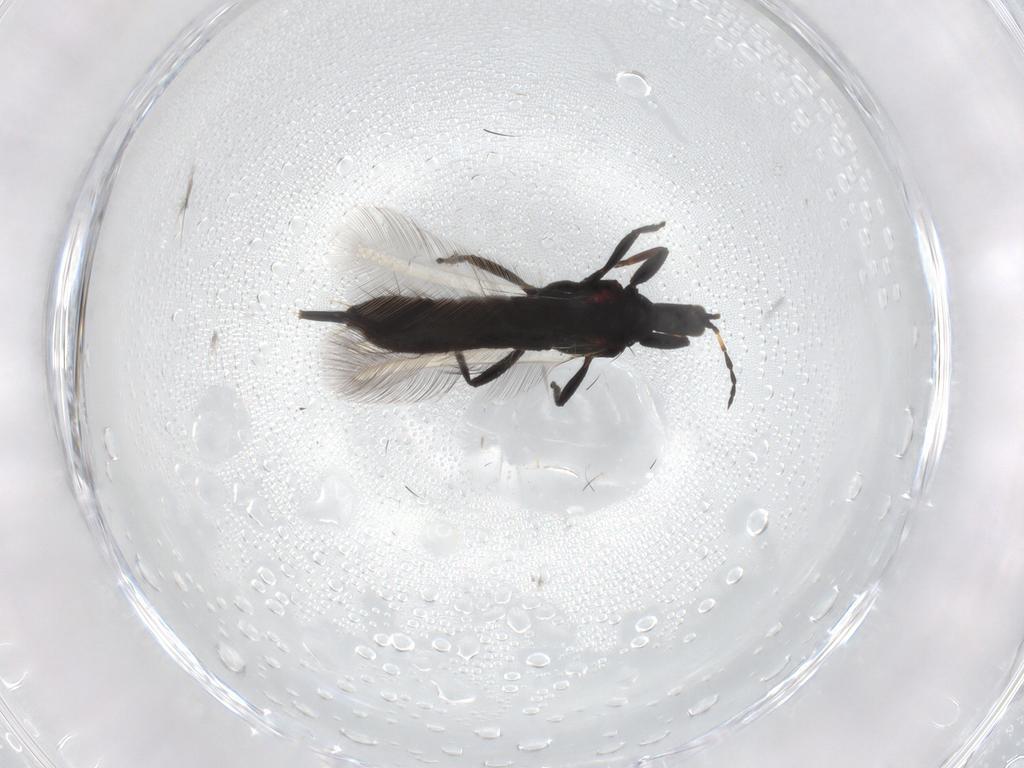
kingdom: Animalia
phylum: Arthropoda
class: Insecta
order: Thysanoptera
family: Phlaeothripidae
